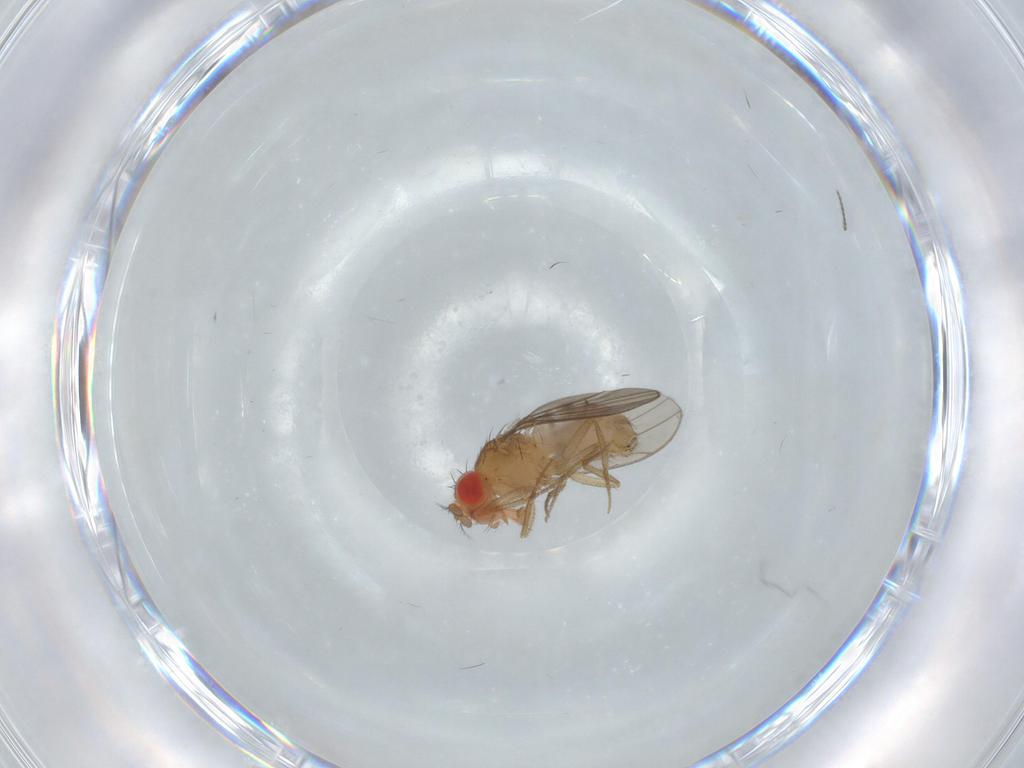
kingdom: Animalia
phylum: Arthropoda
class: Insecta
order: Diptera
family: Drosophilidae
